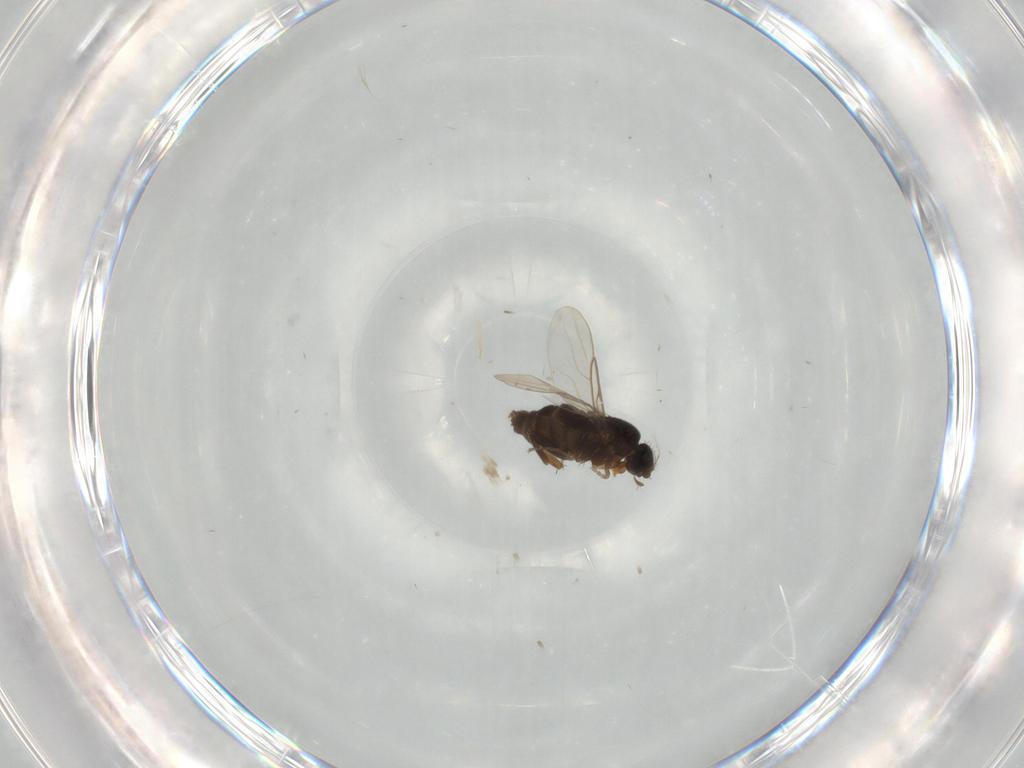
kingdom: Animalia
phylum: Arthropoda
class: Insecta
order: Diptera
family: Phoridae
